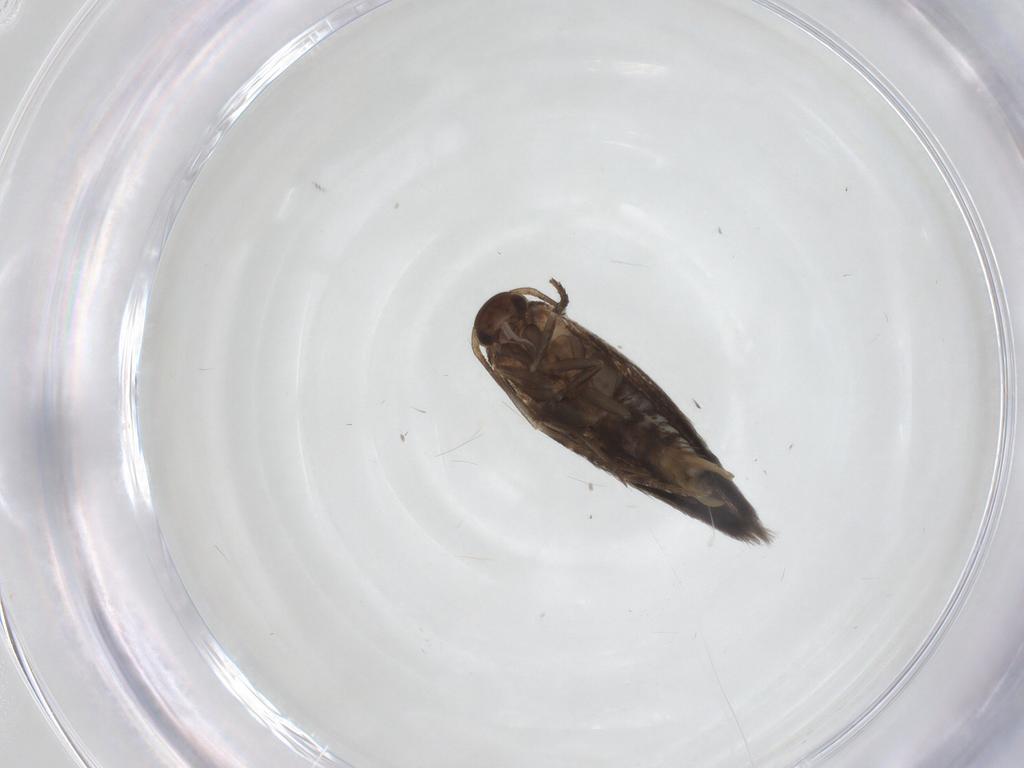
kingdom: Animalia
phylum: Arthropoda
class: Insecta
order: Lepidoptera
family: Elachistidae
